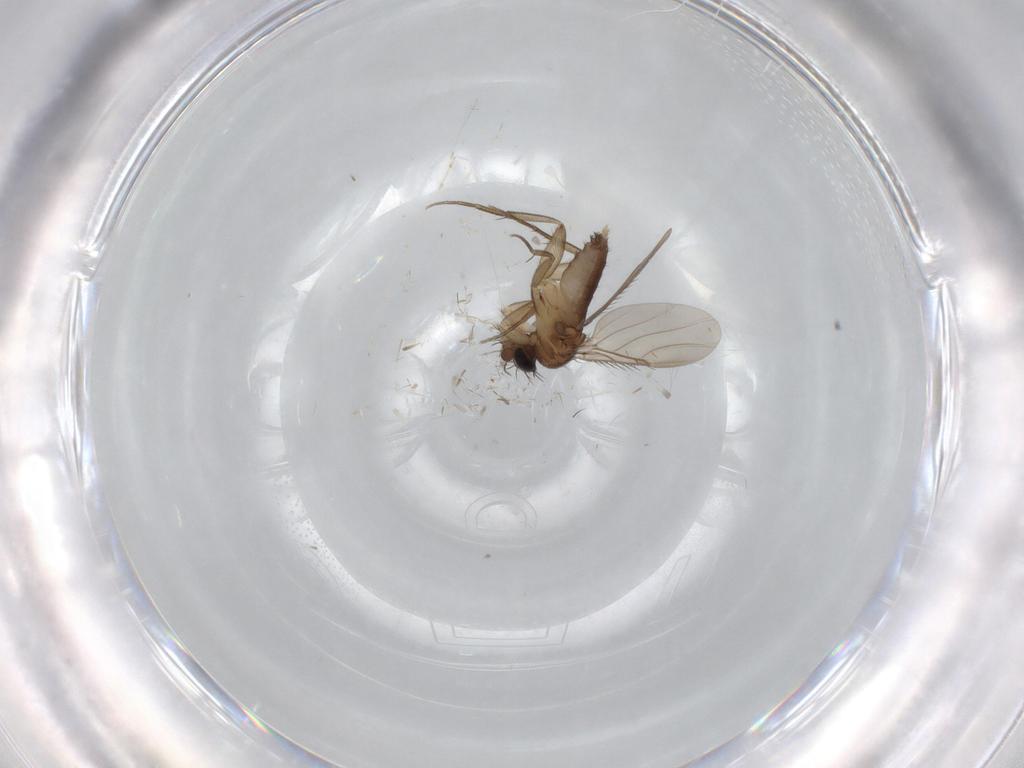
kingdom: Animalia
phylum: Arthropoda
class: Insecta
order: Diptera
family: Phoridae
